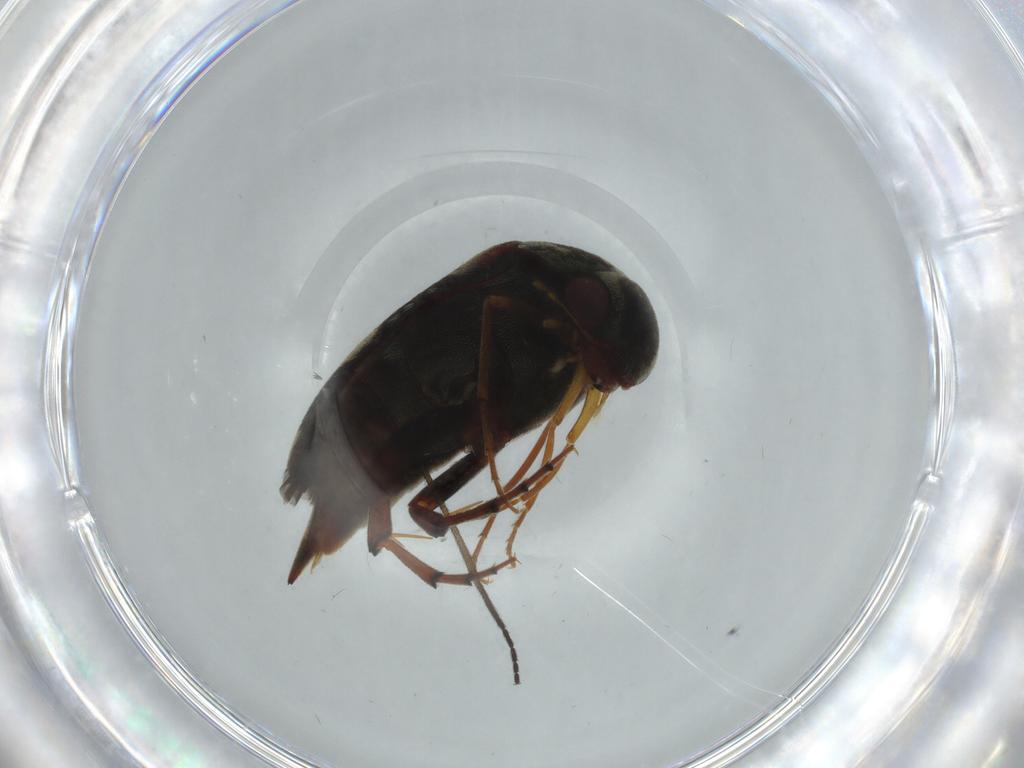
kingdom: Animalia
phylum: Arthropoda
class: Insecta
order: Coleoptera
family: Mordellidae
